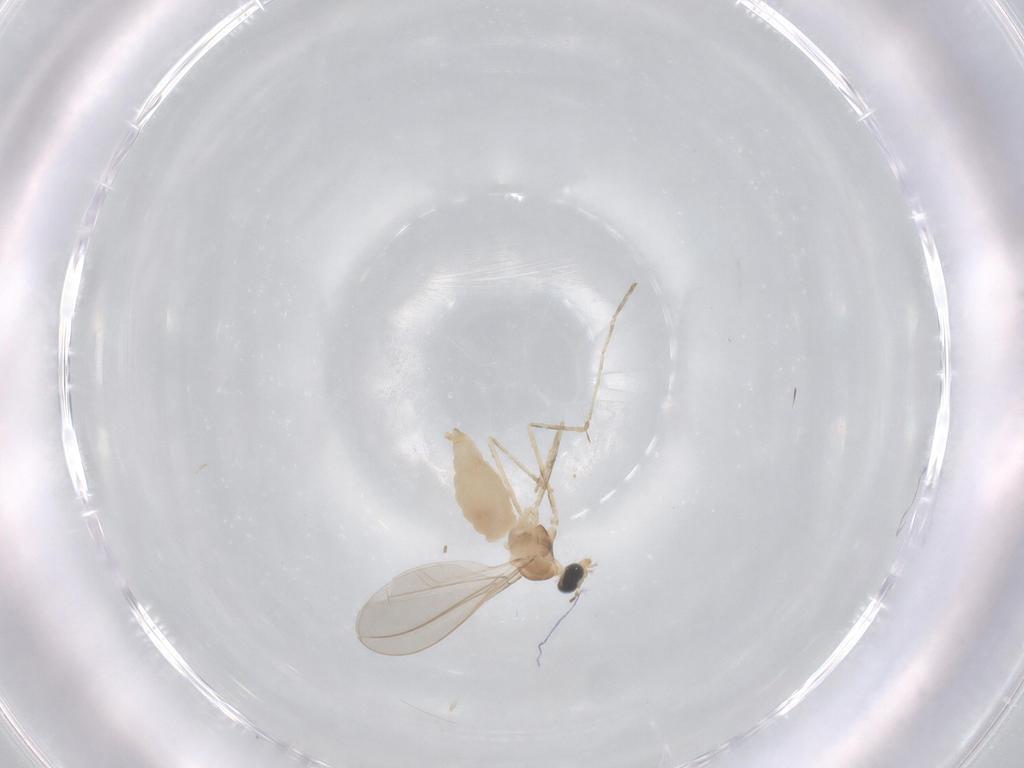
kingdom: Animalia
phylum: Arthropoda
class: Insecta
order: Diptera
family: Cecidomyiidae
